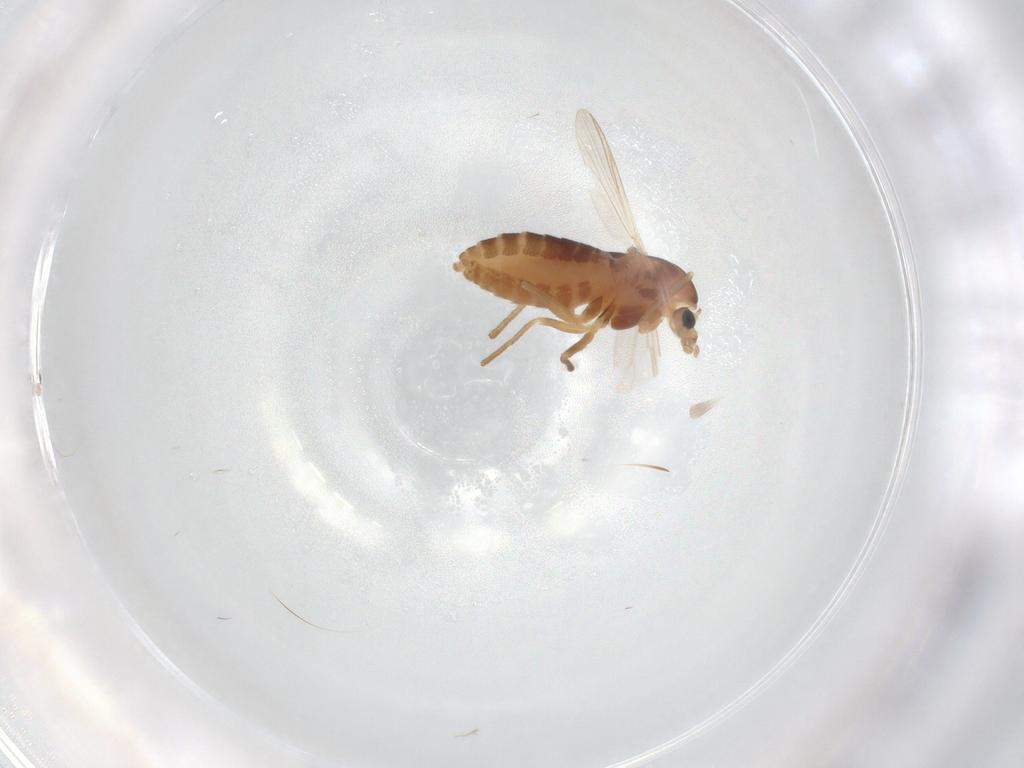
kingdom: Animalia
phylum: Arthropoda
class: Insecta
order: Diptera
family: Chironomidae
